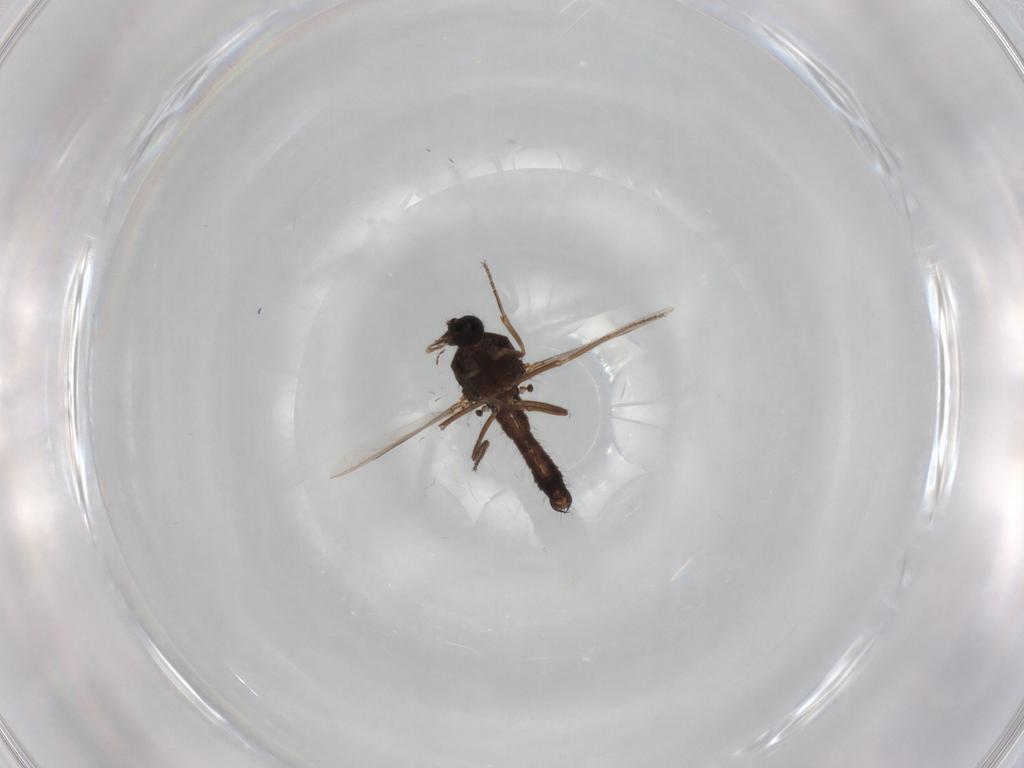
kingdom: Animalia
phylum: Arthropoda
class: Insecta
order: Diptera
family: Ceratopogonidae
